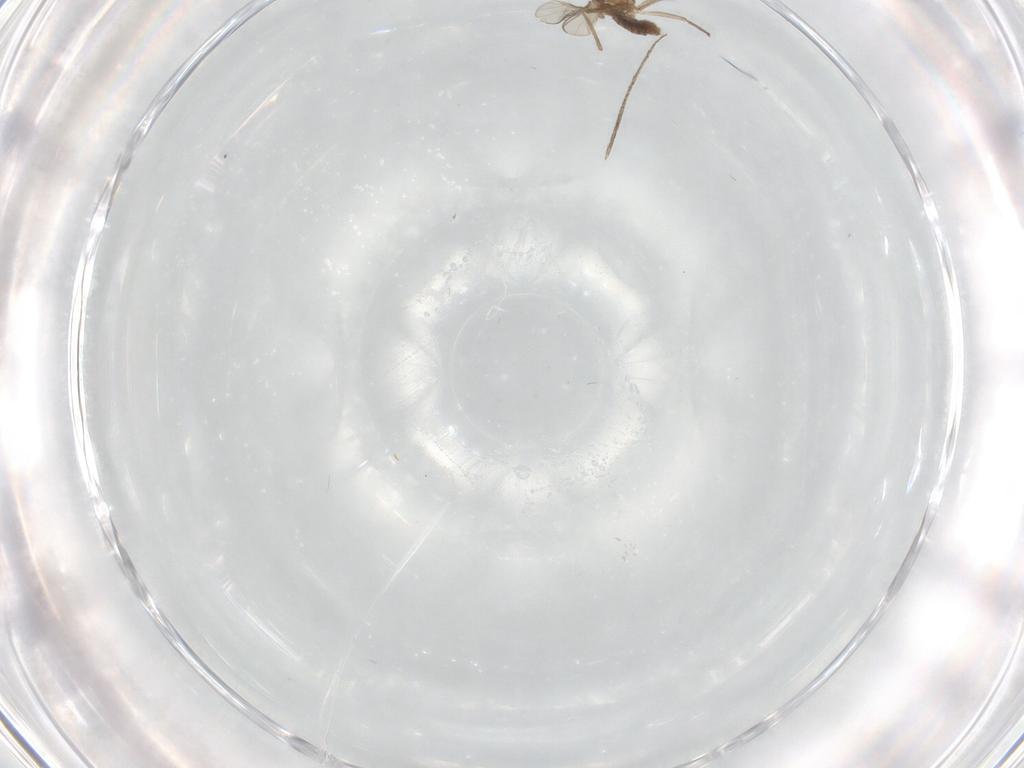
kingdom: Animalia
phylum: Arthropoda
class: Insecta
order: Diptera
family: Cecidomyiidae
